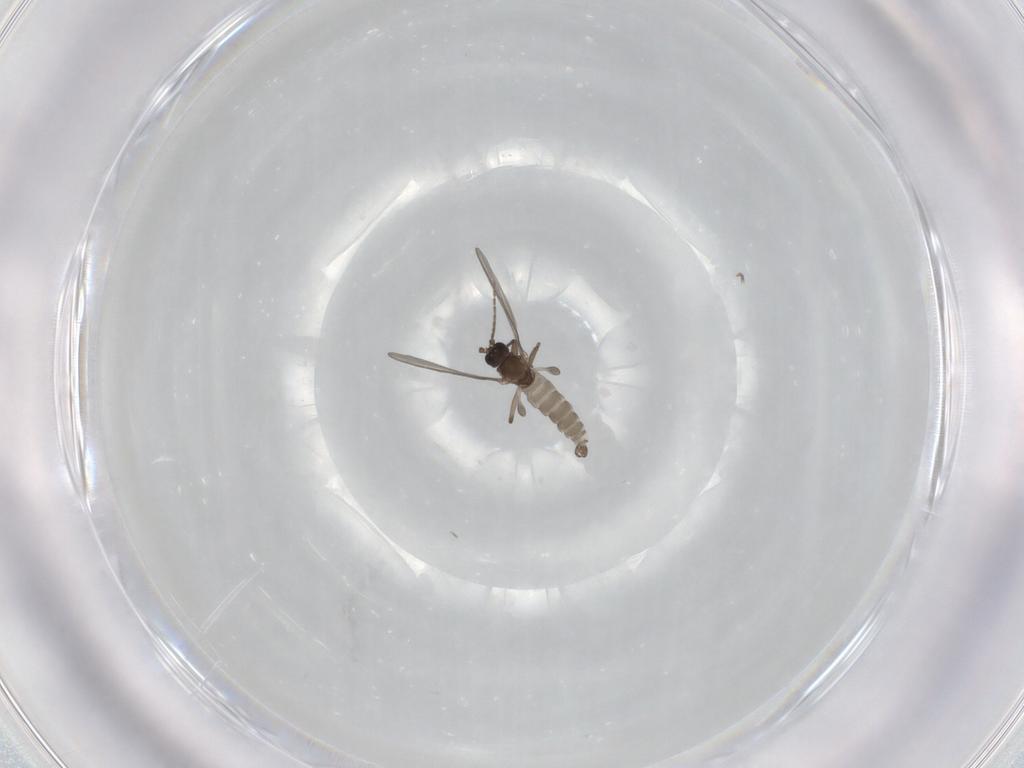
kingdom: Animalia
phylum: Arthropoda
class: Insecta
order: Diptera
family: Sciaridae
